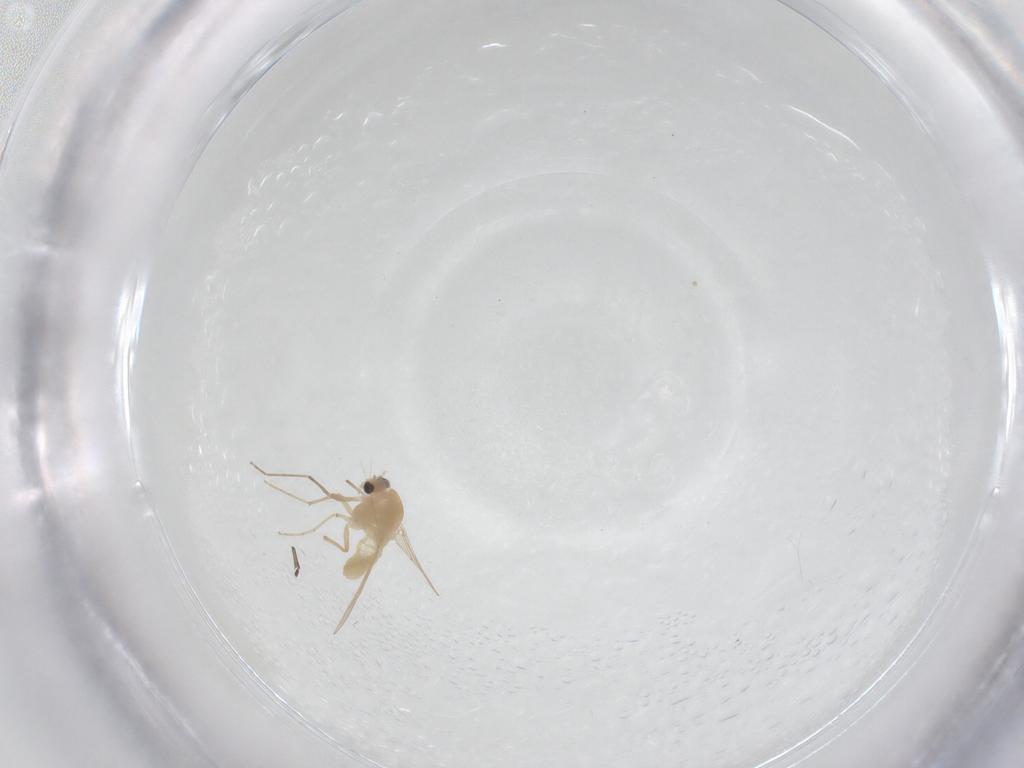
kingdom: Animalia
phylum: Arthropoda
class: Insecta
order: Diptera
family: Chironomidae
